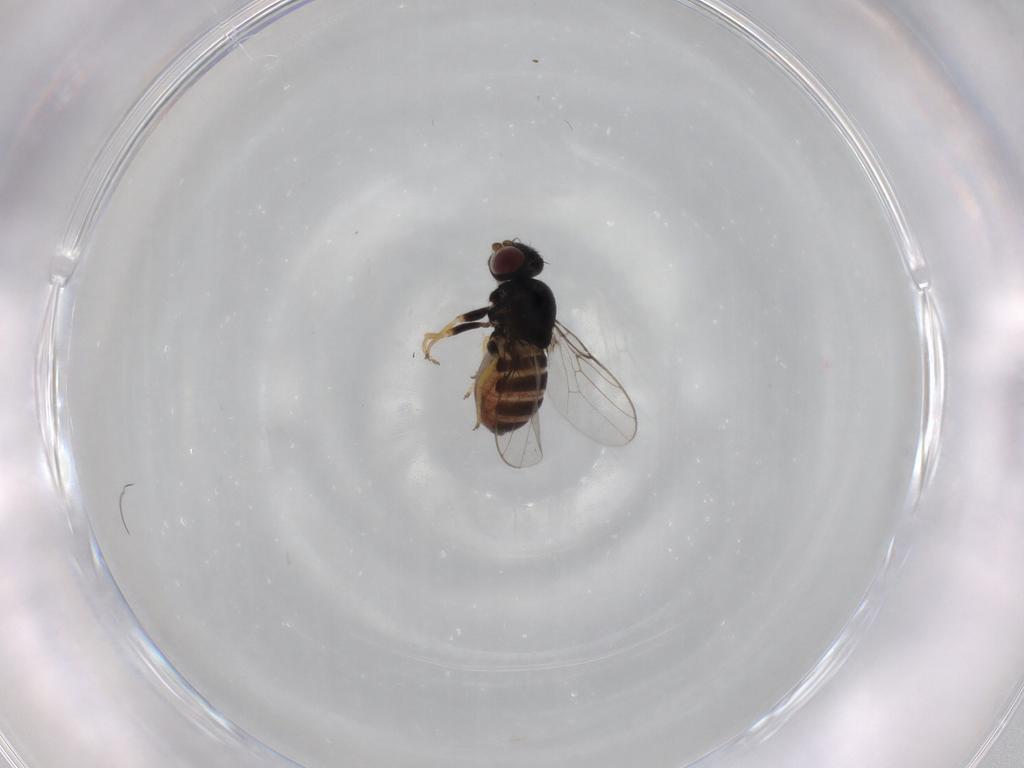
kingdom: Animalia
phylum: Arthropoda
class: Insecta
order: Diptera
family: Chloropidae
